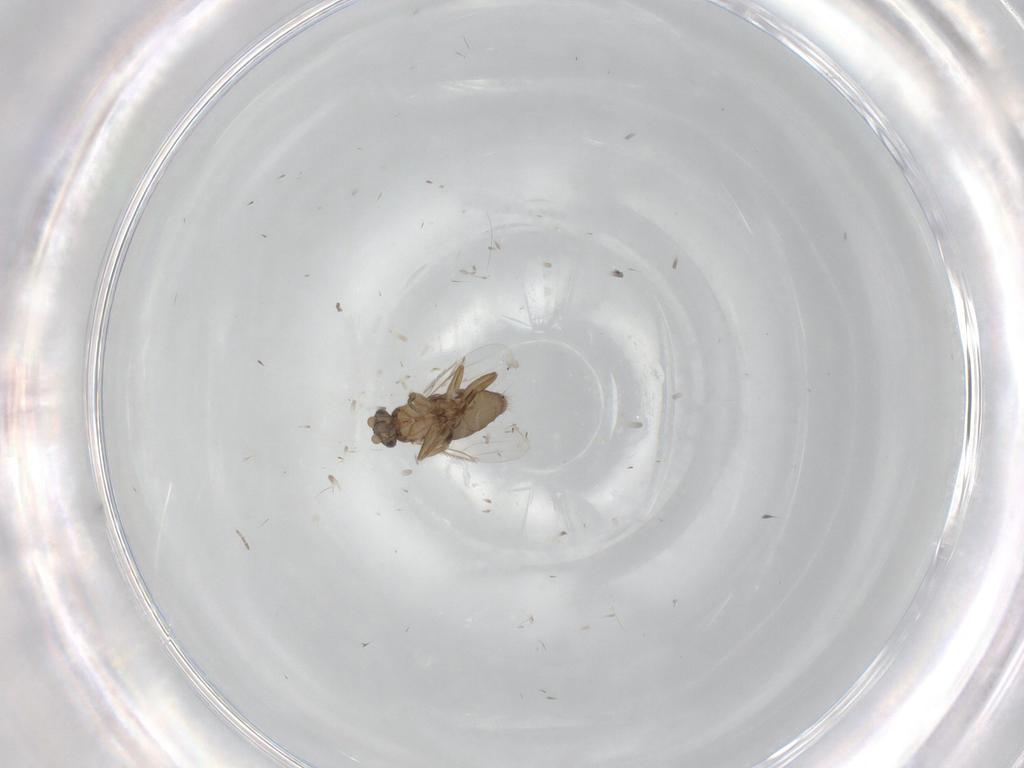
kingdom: Animalia
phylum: Arthropoda
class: Insecta
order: Diptera
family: Phoridae
